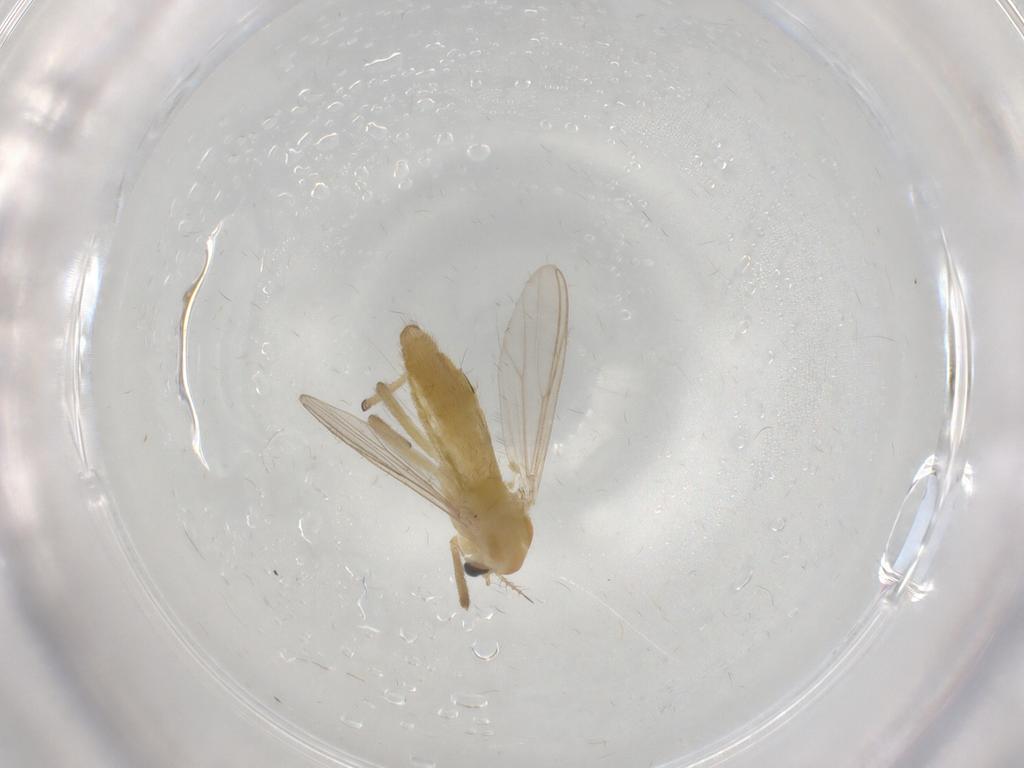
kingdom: Animalia
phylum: Arthropoda
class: Insecta
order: Diptera
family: Chironomidae
